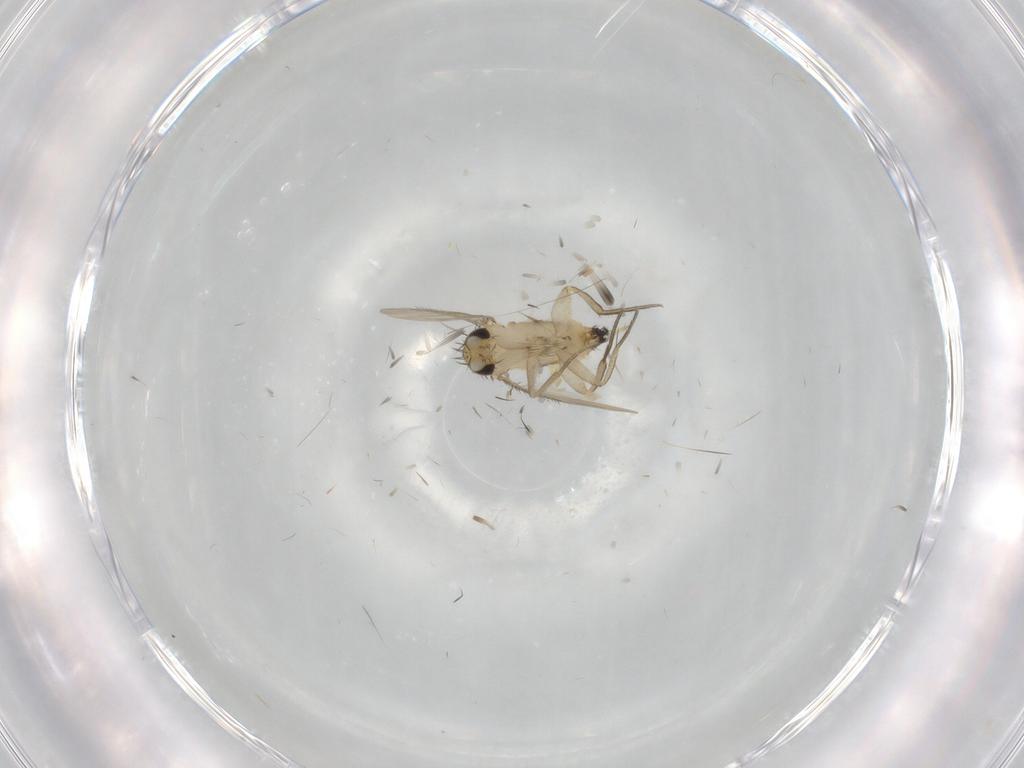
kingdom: Animalia
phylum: Arthropoda
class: Insecta
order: Diptera
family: Phoridae
